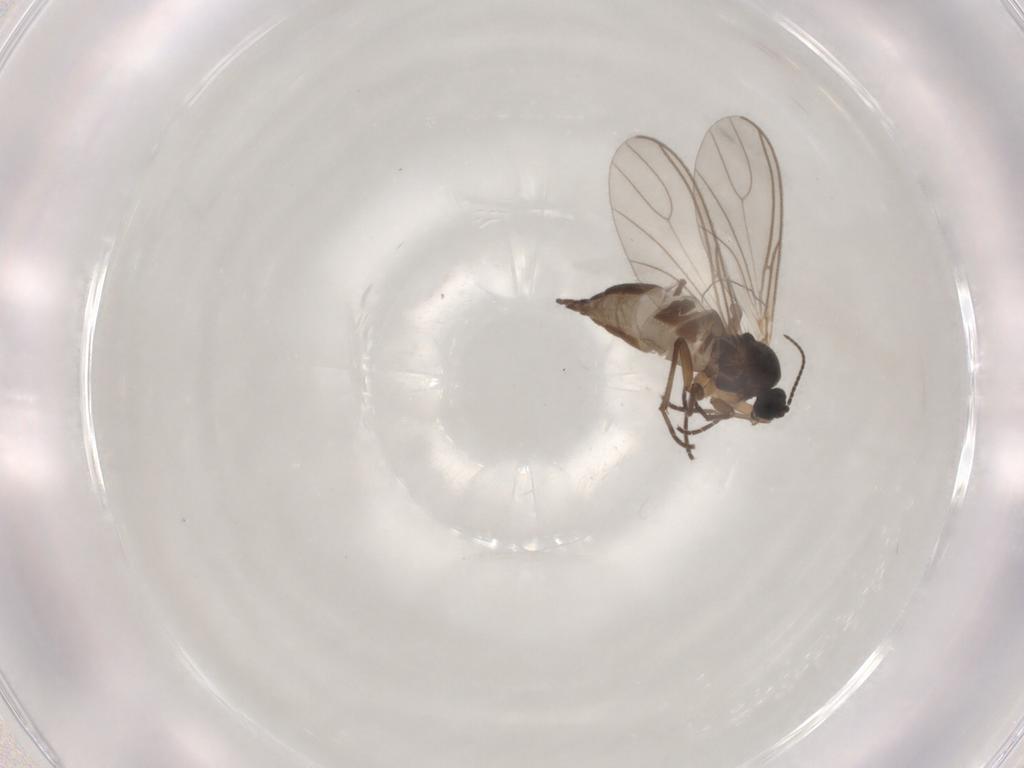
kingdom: Animalia
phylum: Arthropoda
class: Insecta
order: Diptera
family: Sciaridae
